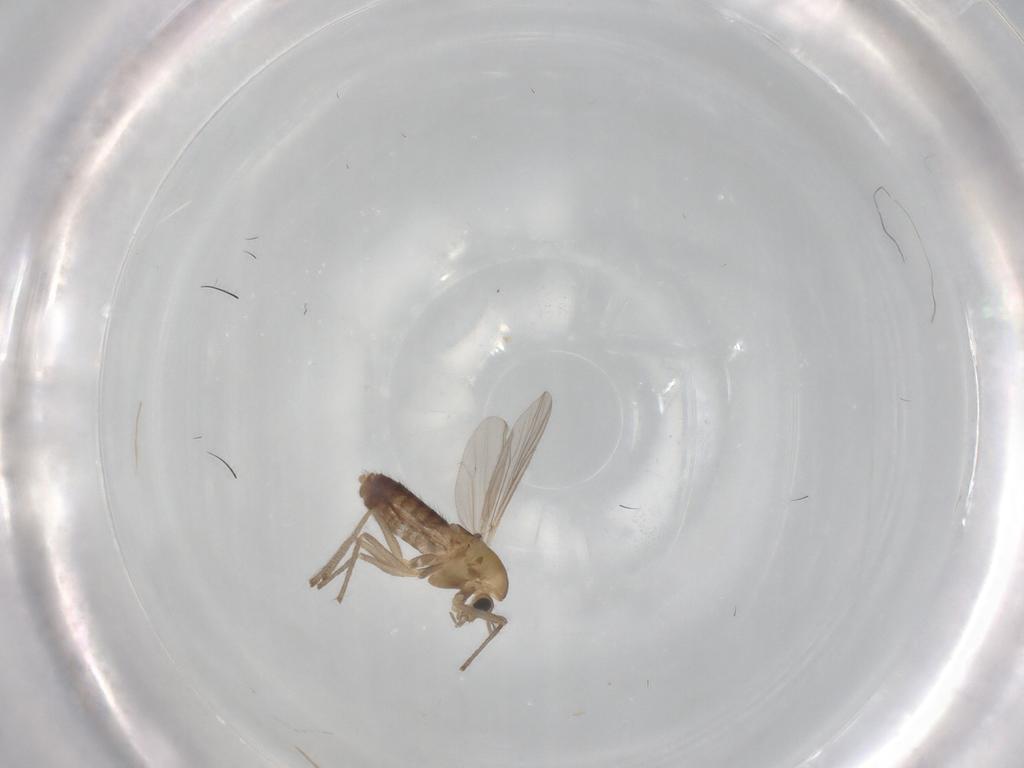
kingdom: Animalia
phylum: Arthropoda
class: Insecta
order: Diptera
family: Chironomidae
